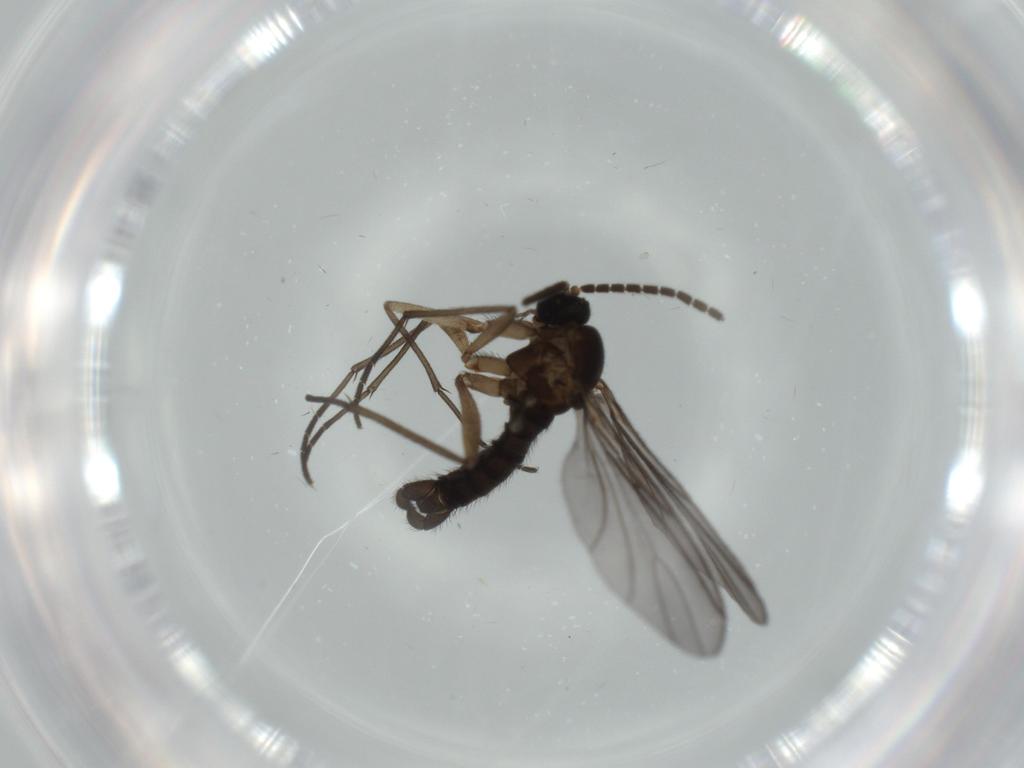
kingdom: Animalia
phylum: Arthropoda
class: Insecta
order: Diptera
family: Sciaridae
